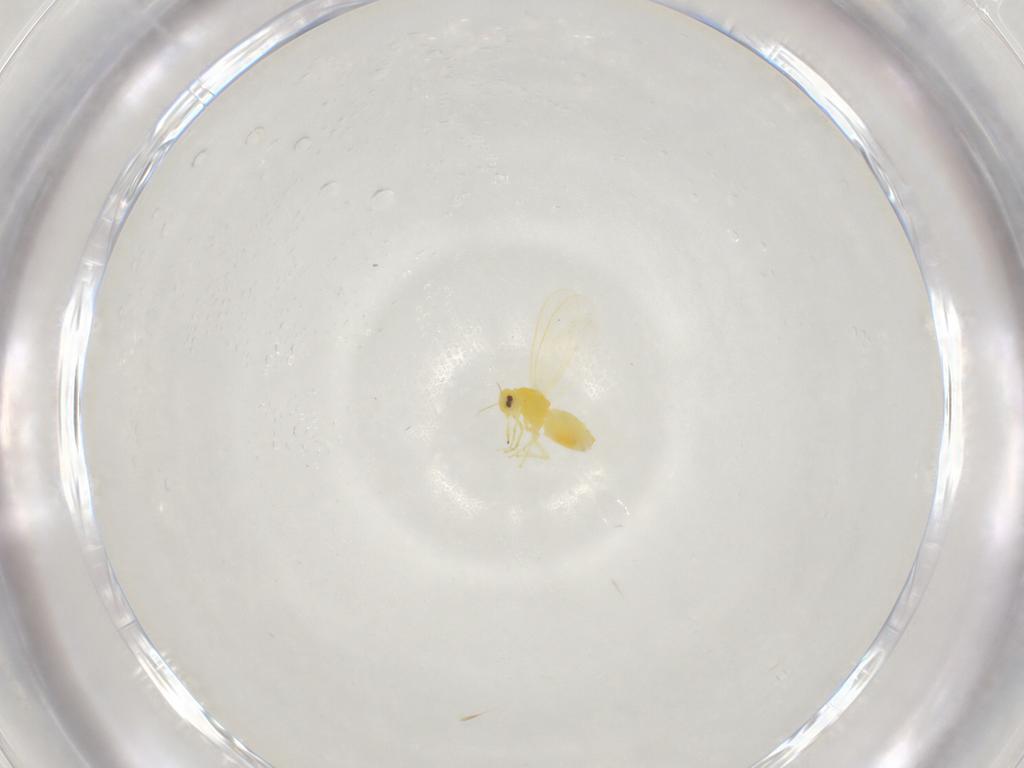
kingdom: Animalia
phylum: Arthropoda
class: Insecta
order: Hemiptera
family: Aleyrodidae
